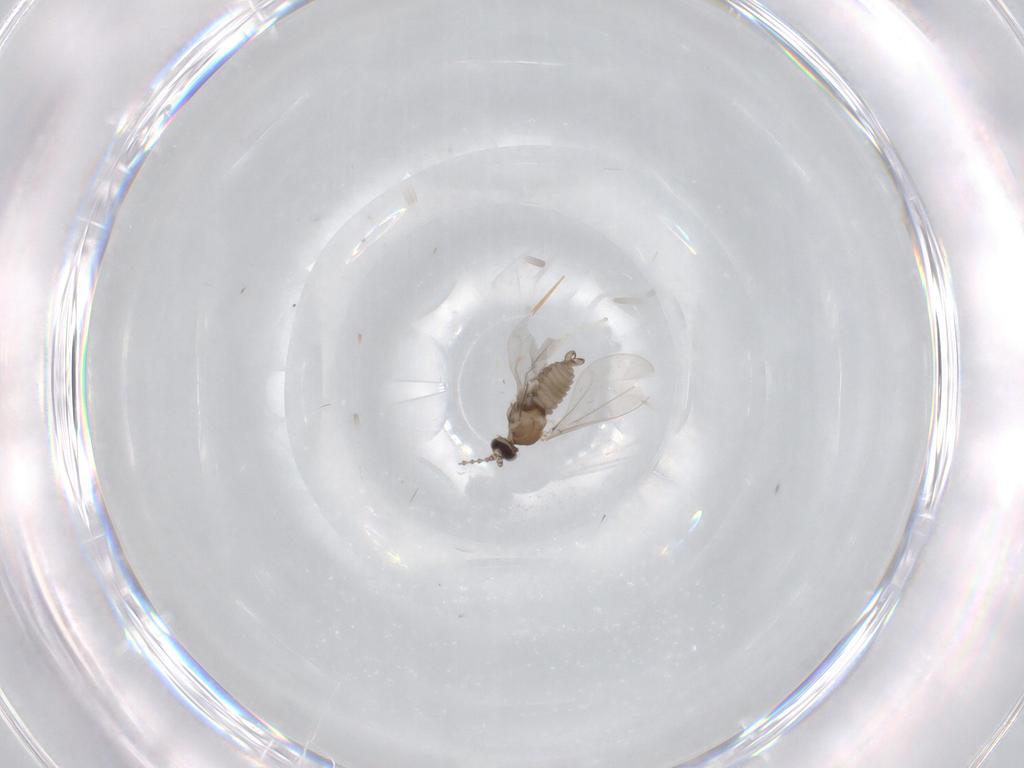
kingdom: Animalia
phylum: Arthropoda
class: Insecta
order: Diptera
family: Cecidomyiidae
